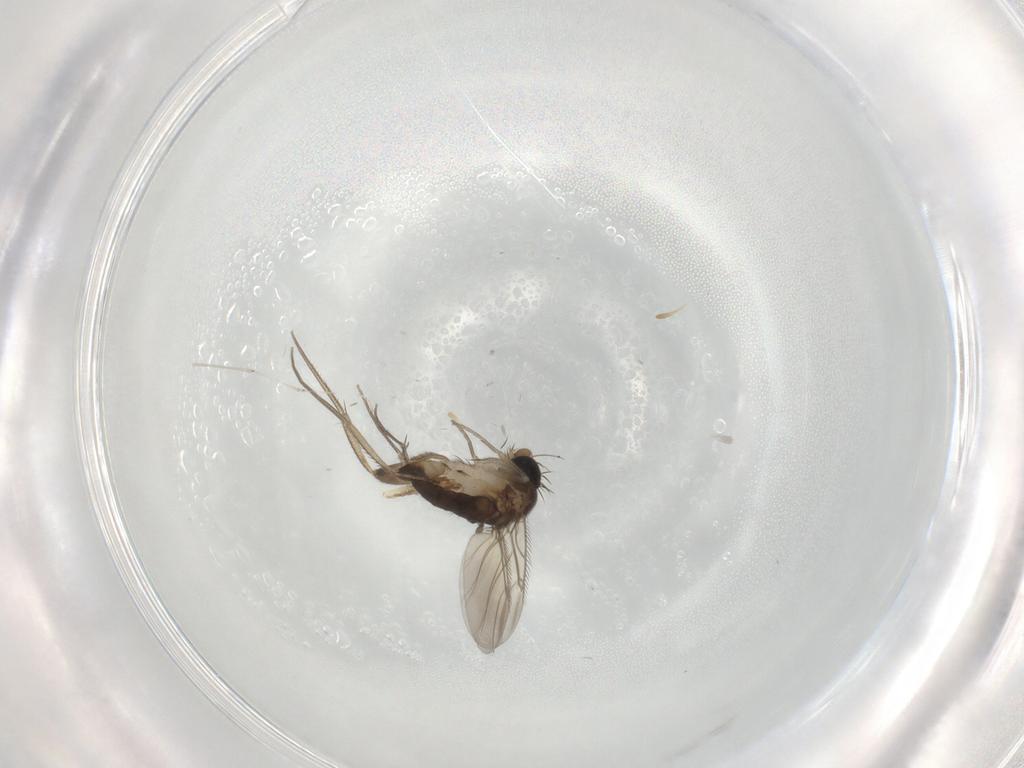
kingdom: Animalia
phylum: Arthropoda
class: Insecta
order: Diptera
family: Phoridae
